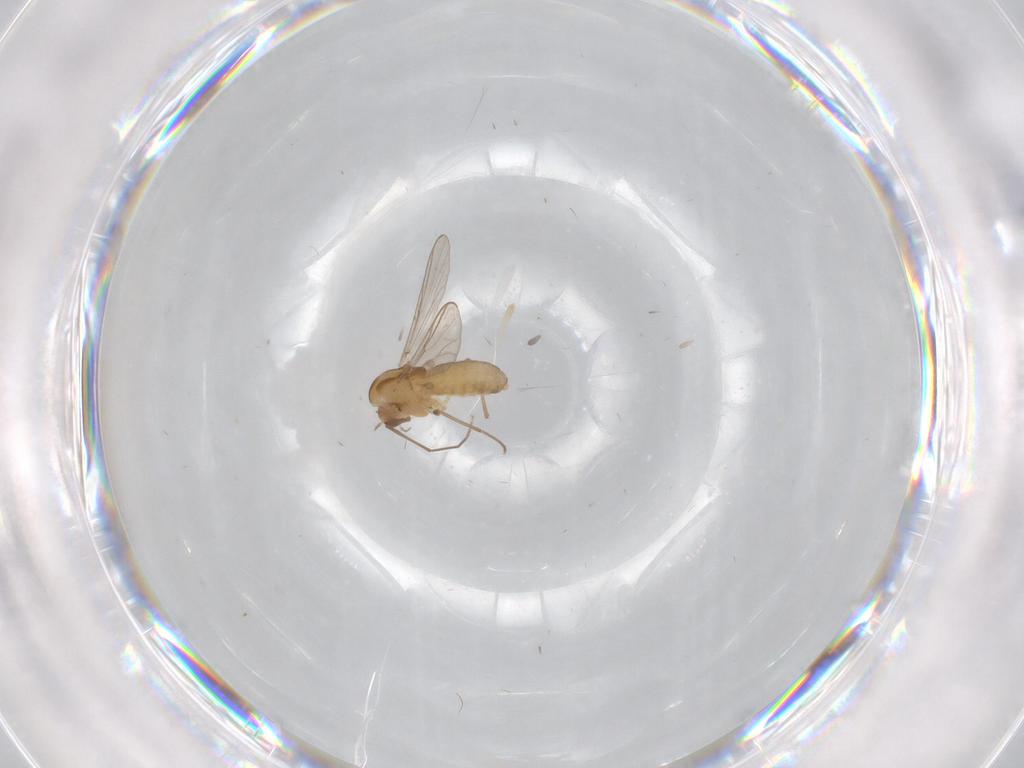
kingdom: Animalia
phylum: Arthropoda
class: Insecta
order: Diptera
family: Chironomidae
